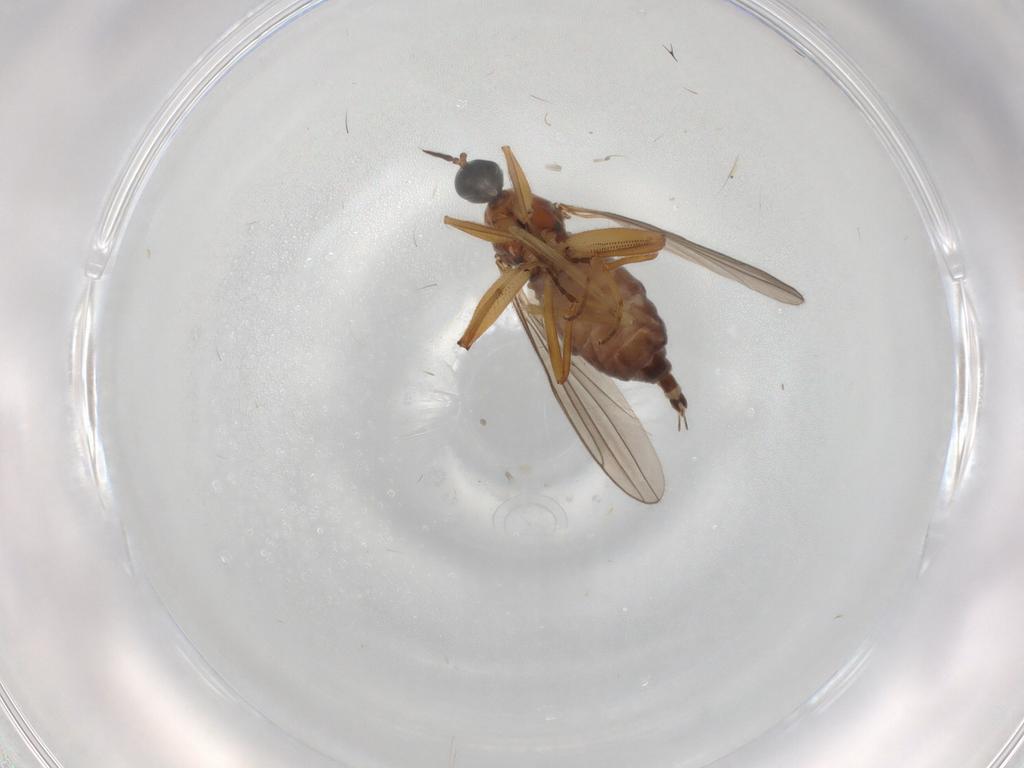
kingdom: Animalia
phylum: Arthropoda
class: Insecta
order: Diptera
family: Hybotidae
